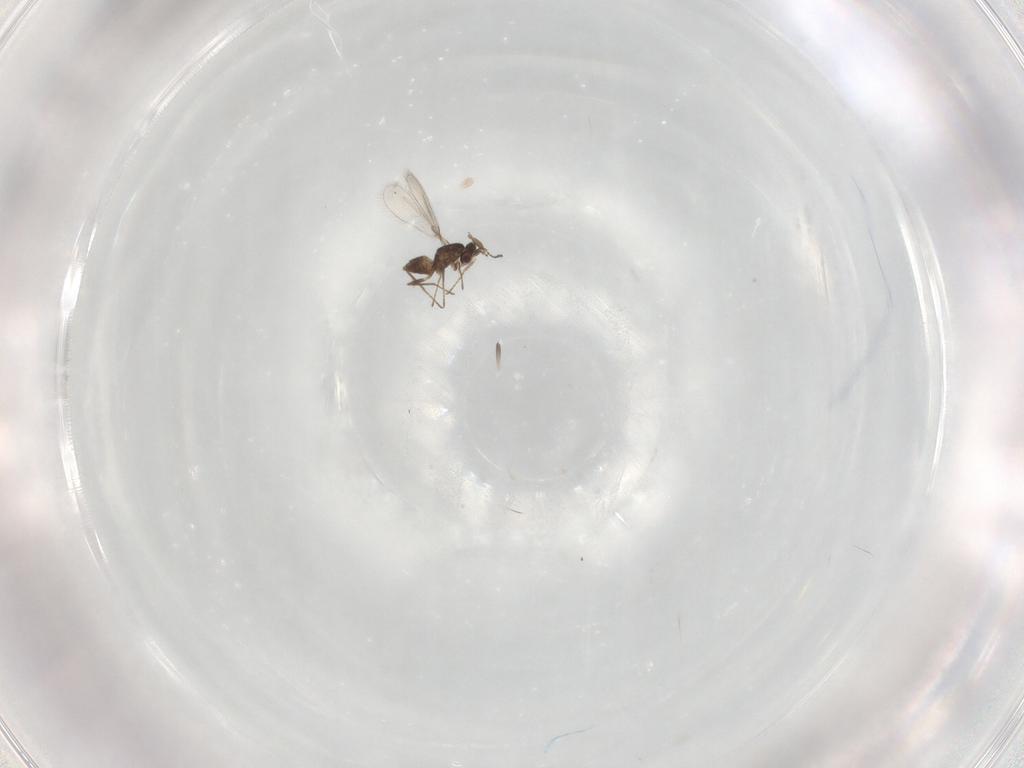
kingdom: Animalia
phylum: Arthropoda
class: Insecta
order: Hymenoptera
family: Mymaridae
